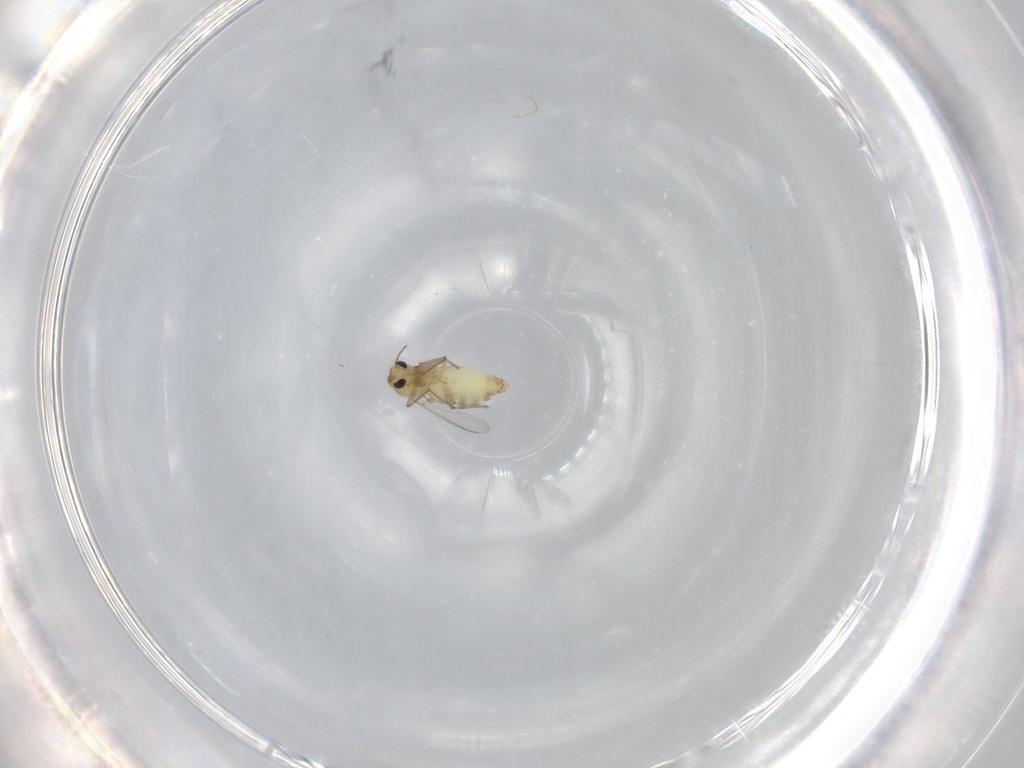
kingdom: Animalia
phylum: Arthropoda
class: Insecta
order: Diptera
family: Chironomidae
